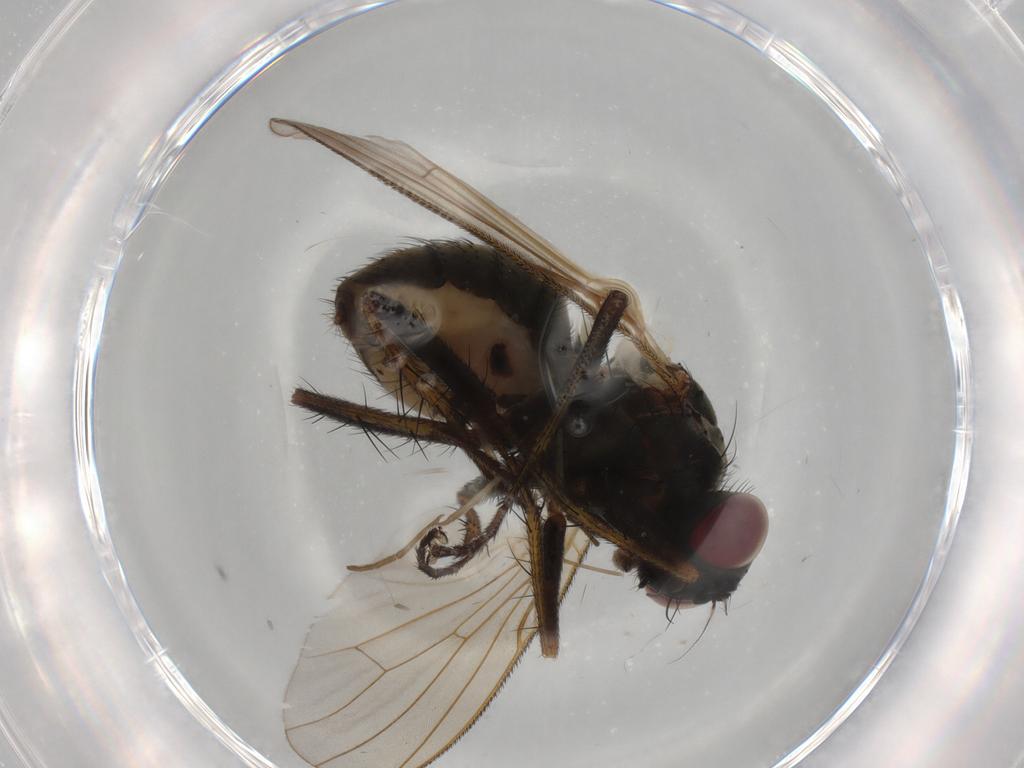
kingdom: Animalia
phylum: Arthropoda
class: Insecta
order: Diptera
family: Chironomidae
